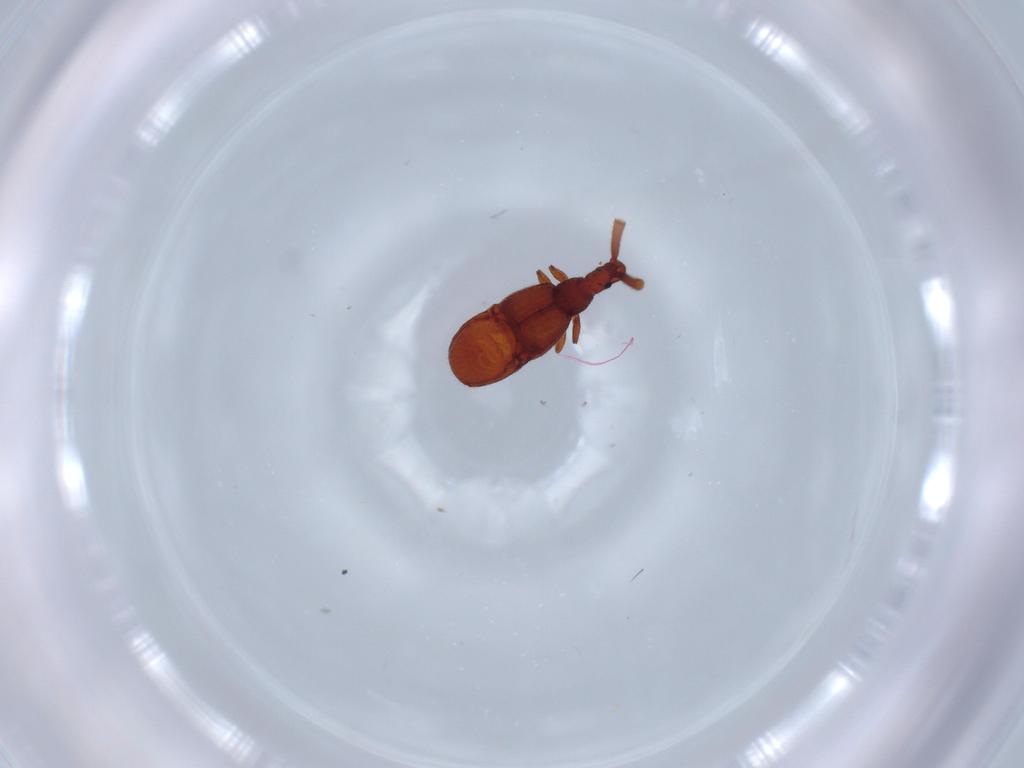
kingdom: Animalia
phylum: Arthropoda
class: Insecta
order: Coleoptera
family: Staphylinidae
